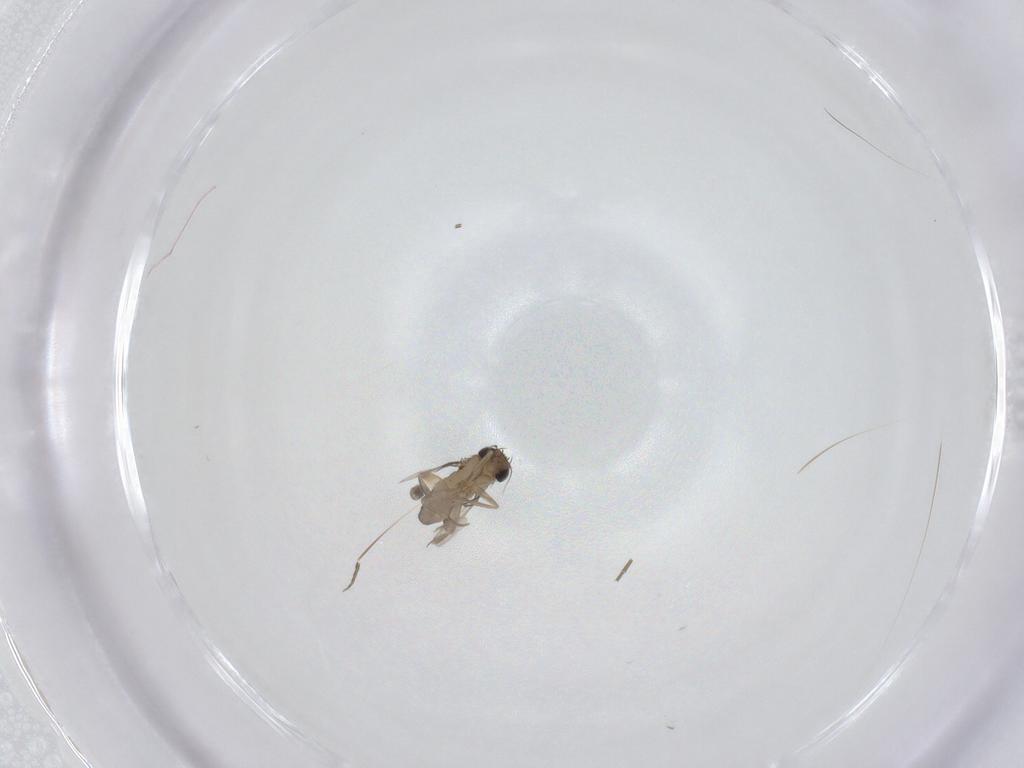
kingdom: Animalia
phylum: Arthropoda
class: Insecta
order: Diptera
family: Phoridae
